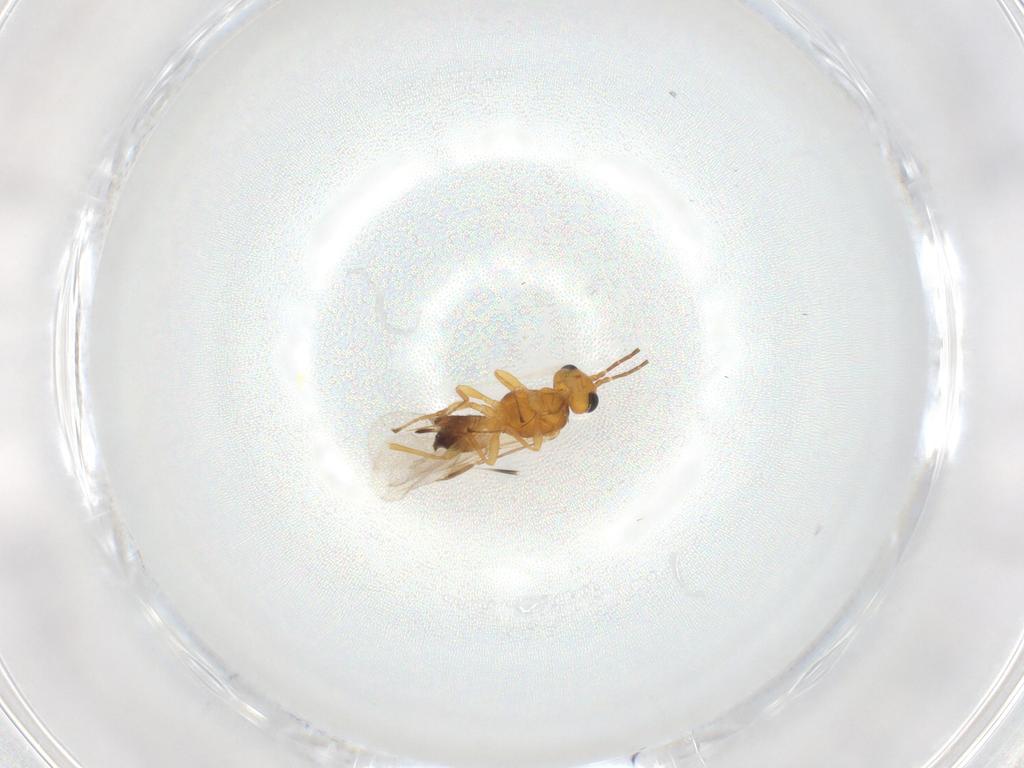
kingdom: Animalia
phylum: Arthropoda
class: Insecta
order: Hymenoptera
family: Braconidae
